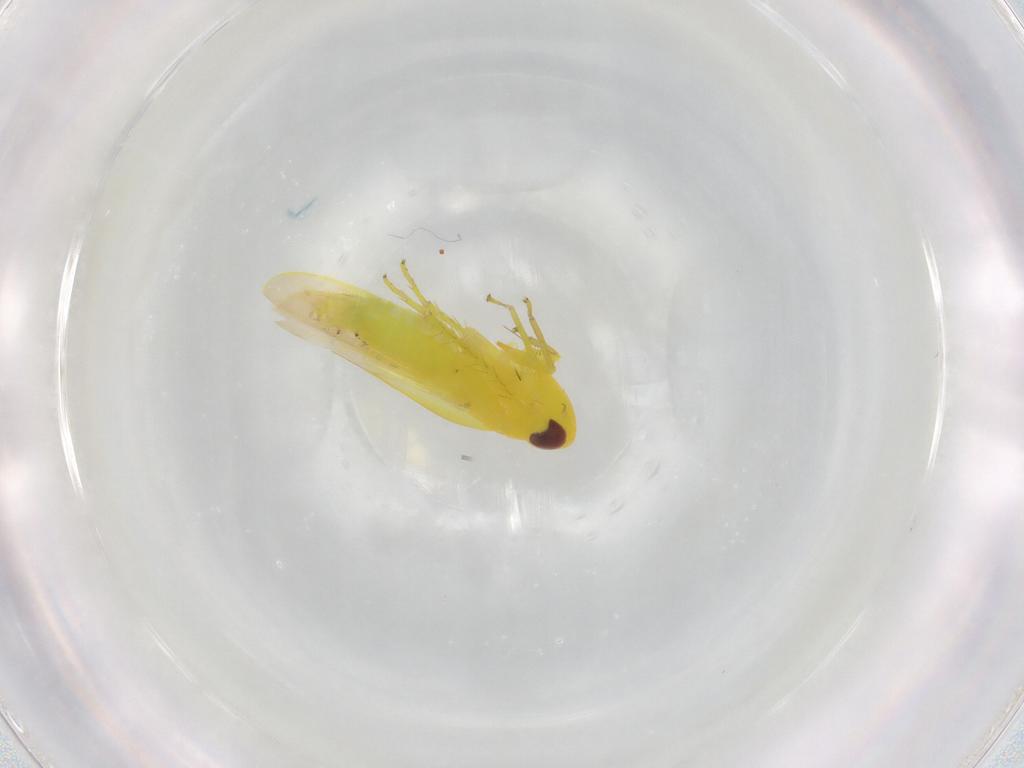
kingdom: Animalia
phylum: Arthropoda
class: Insecta
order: Hemiptera
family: Cicadellidae
